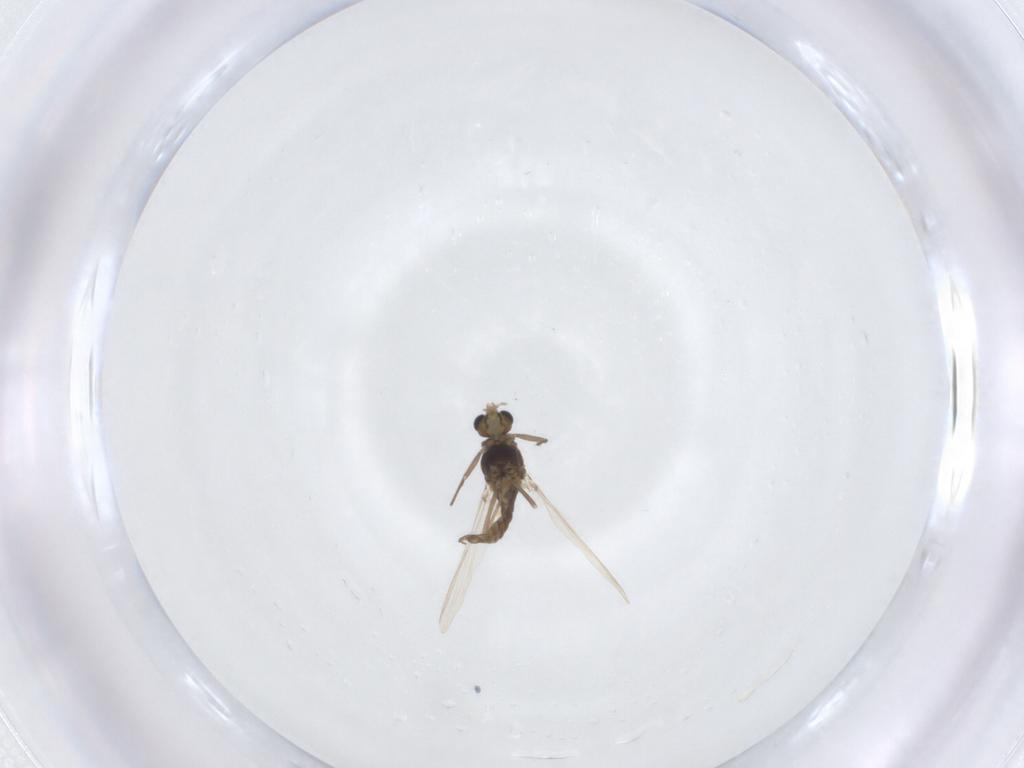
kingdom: Animalia
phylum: Arthropoda
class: Insecta
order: Diptera
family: Chironomidae
